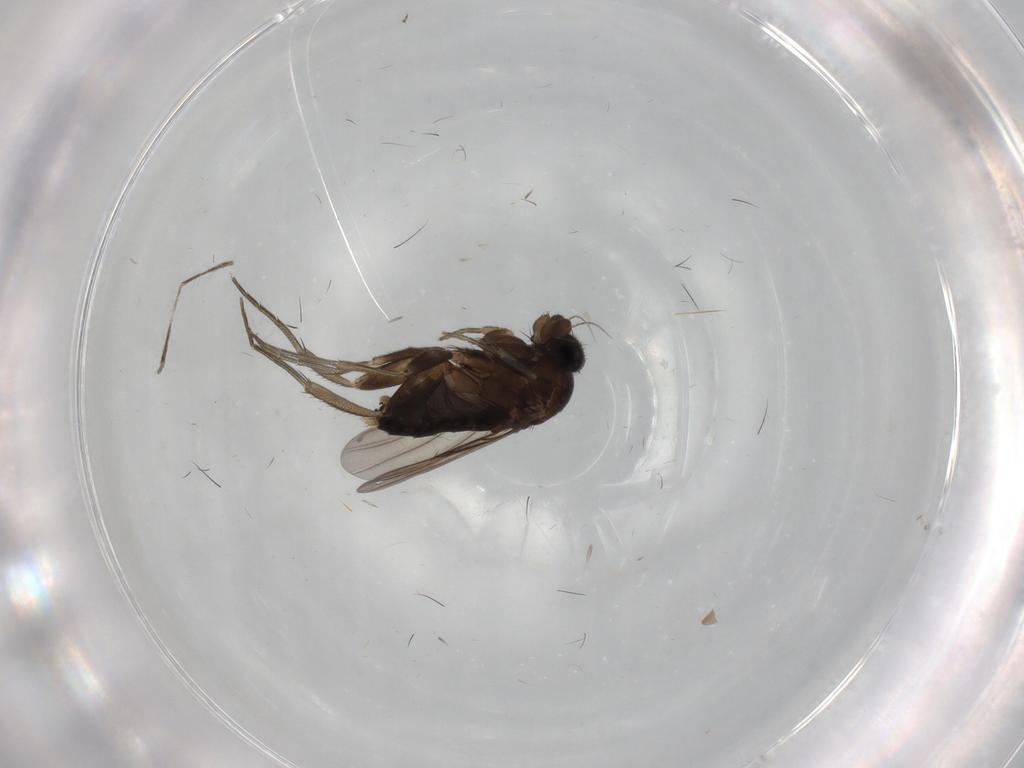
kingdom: Animalia
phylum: Arthropoda
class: Insecta
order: Diptera
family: Phoridae
